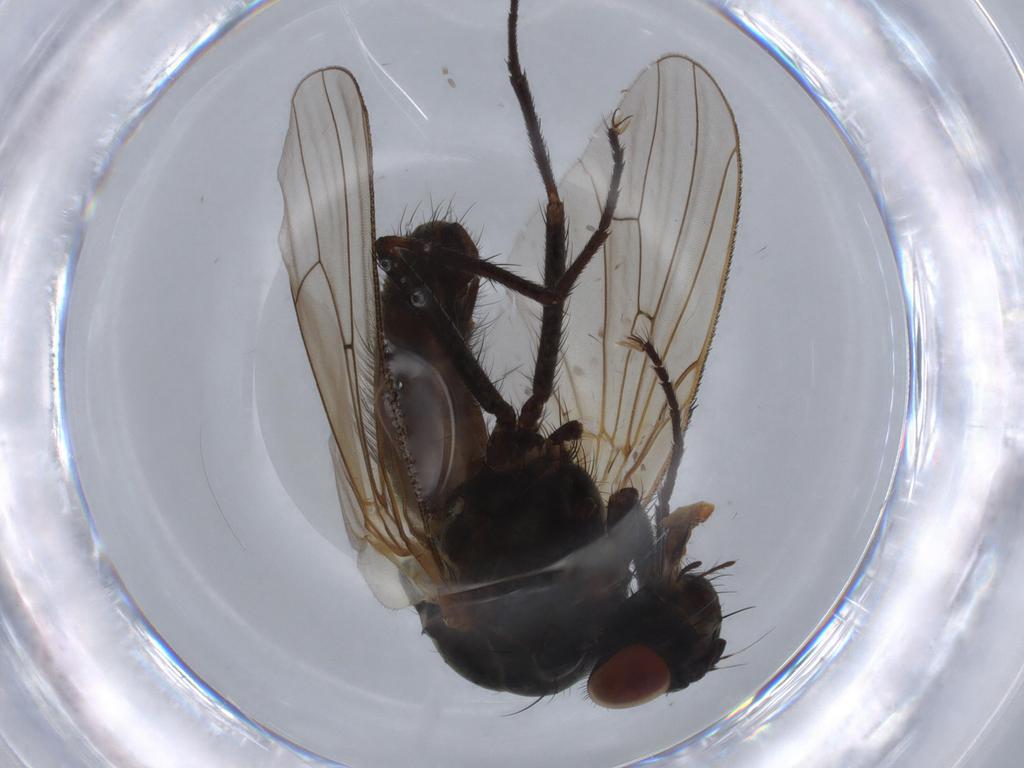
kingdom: Animalia
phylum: Arthropoda
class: Insecta
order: Diptera
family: Anthomyiidae
